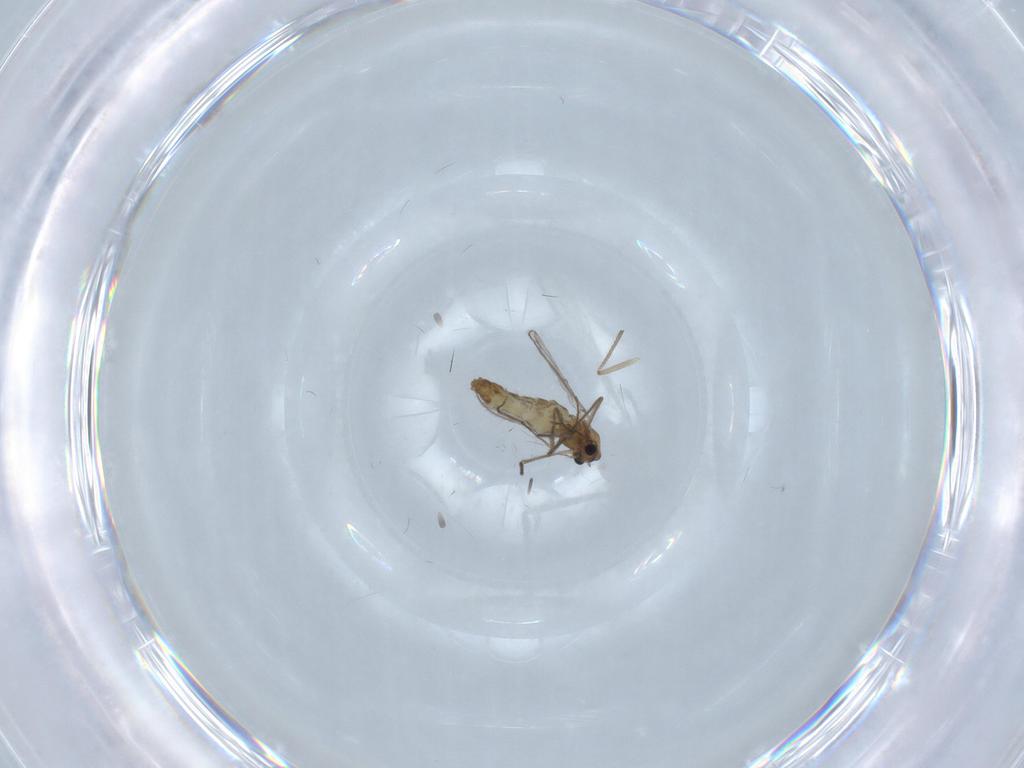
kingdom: Animalia
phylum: Arthropoda
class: Insecta
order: Diptera
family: Chironomidae
